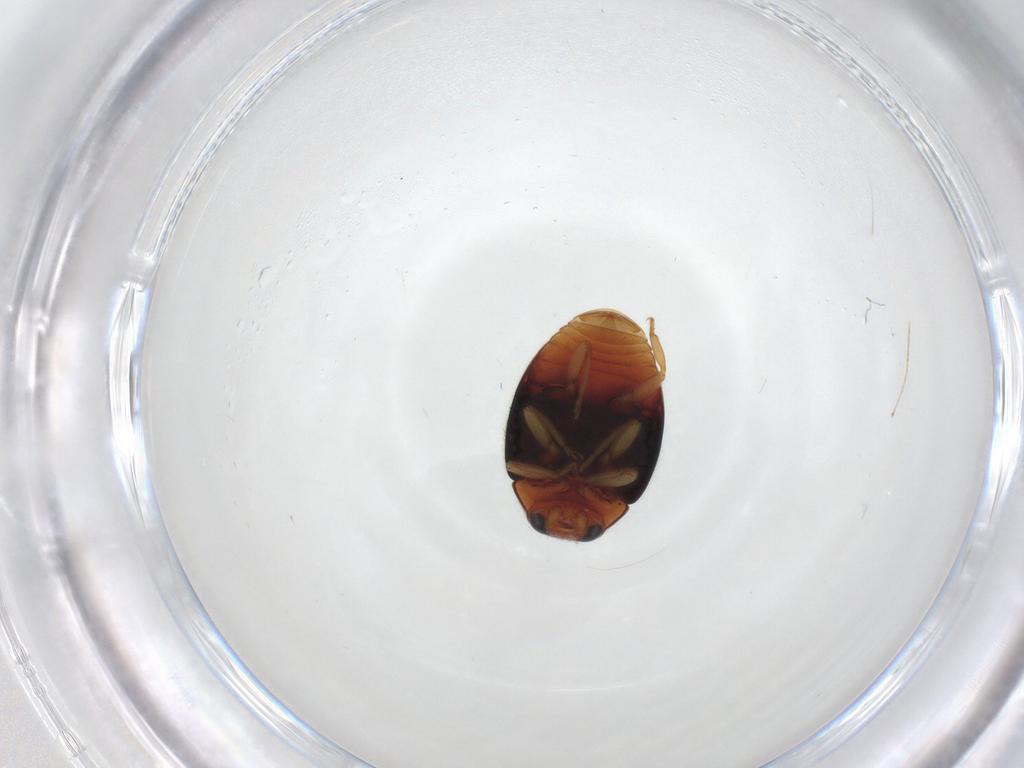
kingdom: Animalia
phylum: Arthropoda
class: Insecta
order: Coleoptera
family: Coccinellidae
